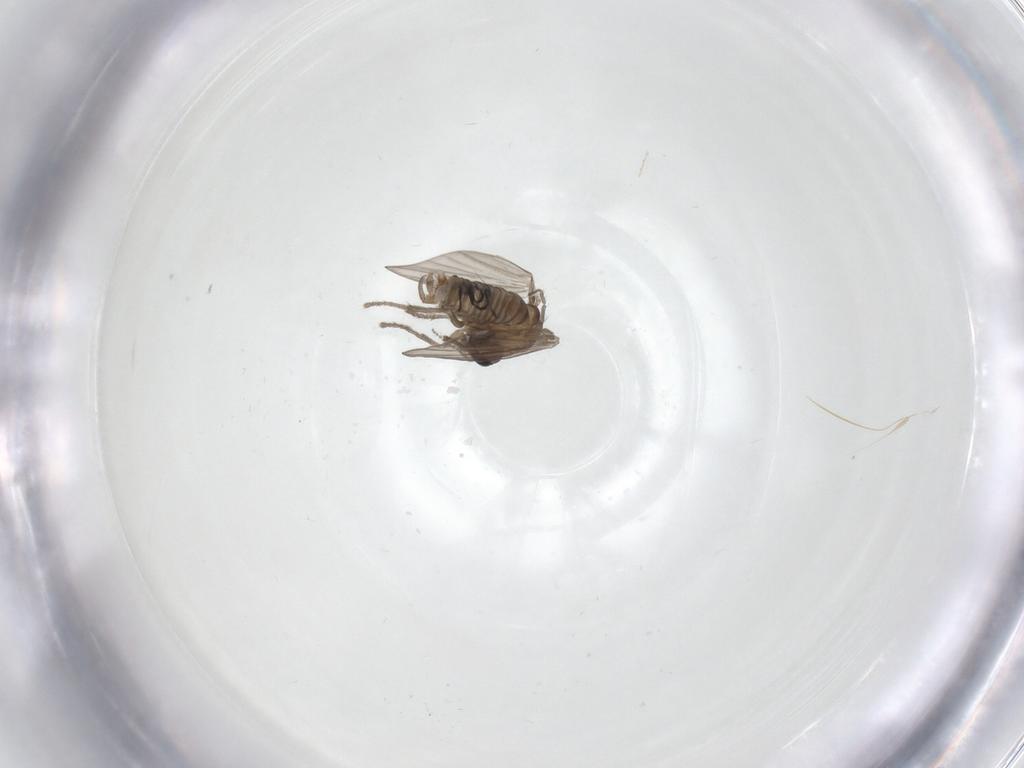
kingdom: Animalia
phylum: Arthropoda
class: Insecta
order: Diptera
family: Psychodidae
